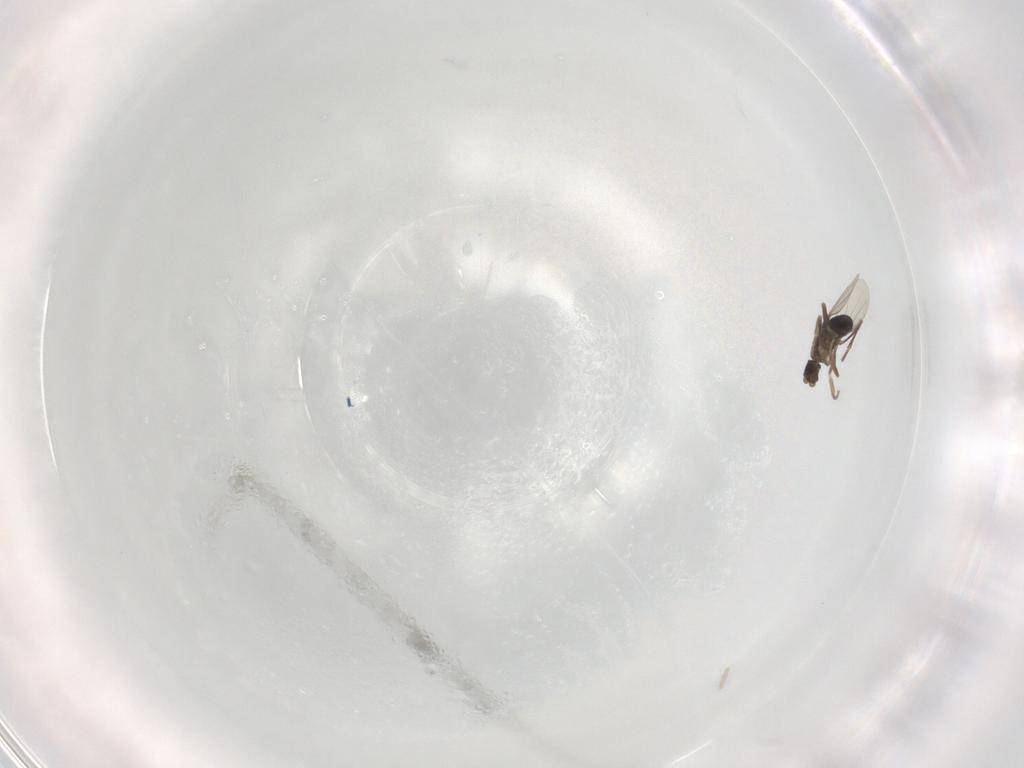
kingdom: Animalia
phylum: Arthropoda
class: Insecta
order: Diptera
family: Phoridae
